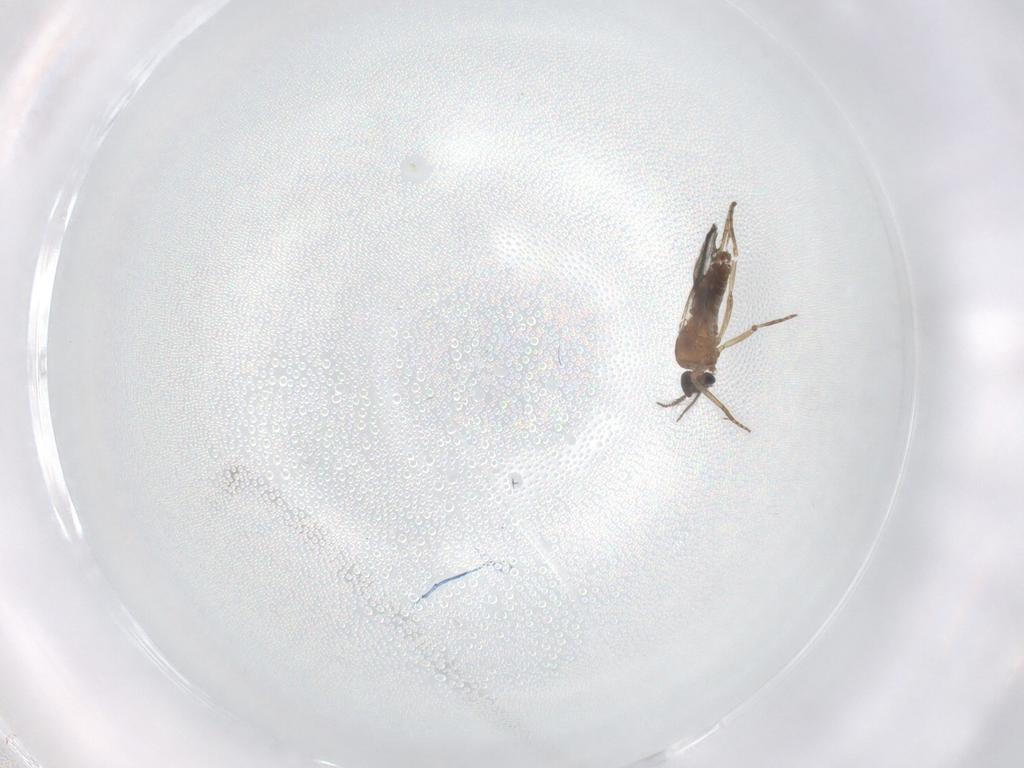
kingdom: Animalia
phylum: Arthropoda
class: Insecta
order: Diptera
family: Ceratopogonidae
